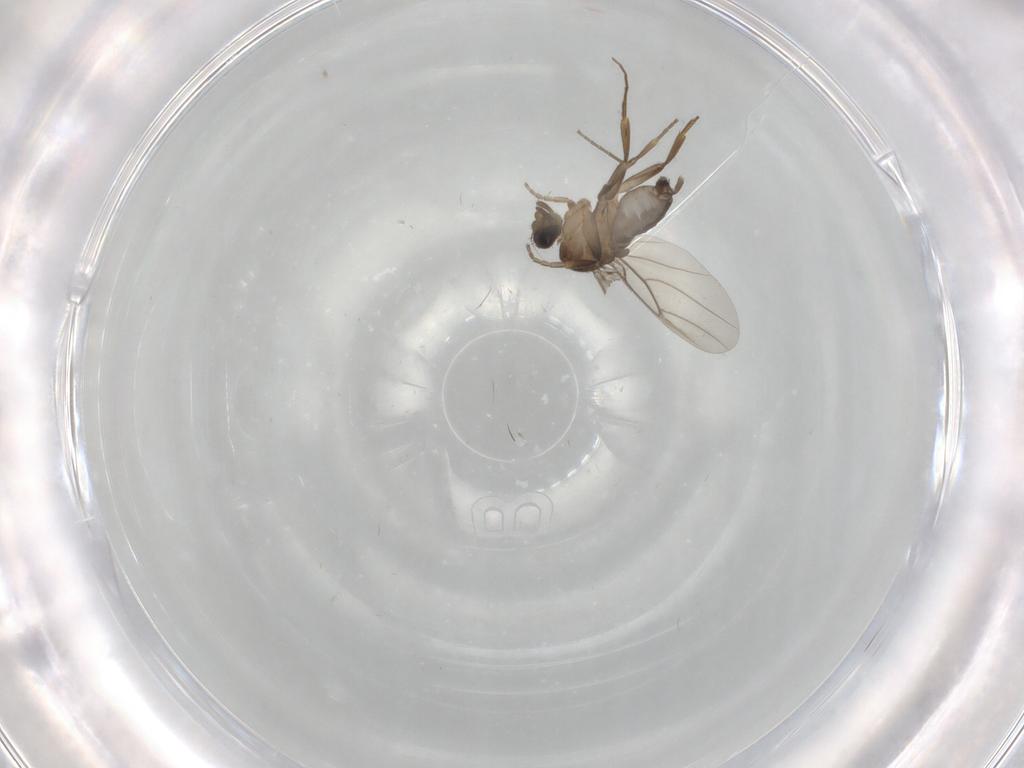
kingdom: Animalia
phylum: Arthropoda
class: Insecta
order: Diptera
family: Phoridae
